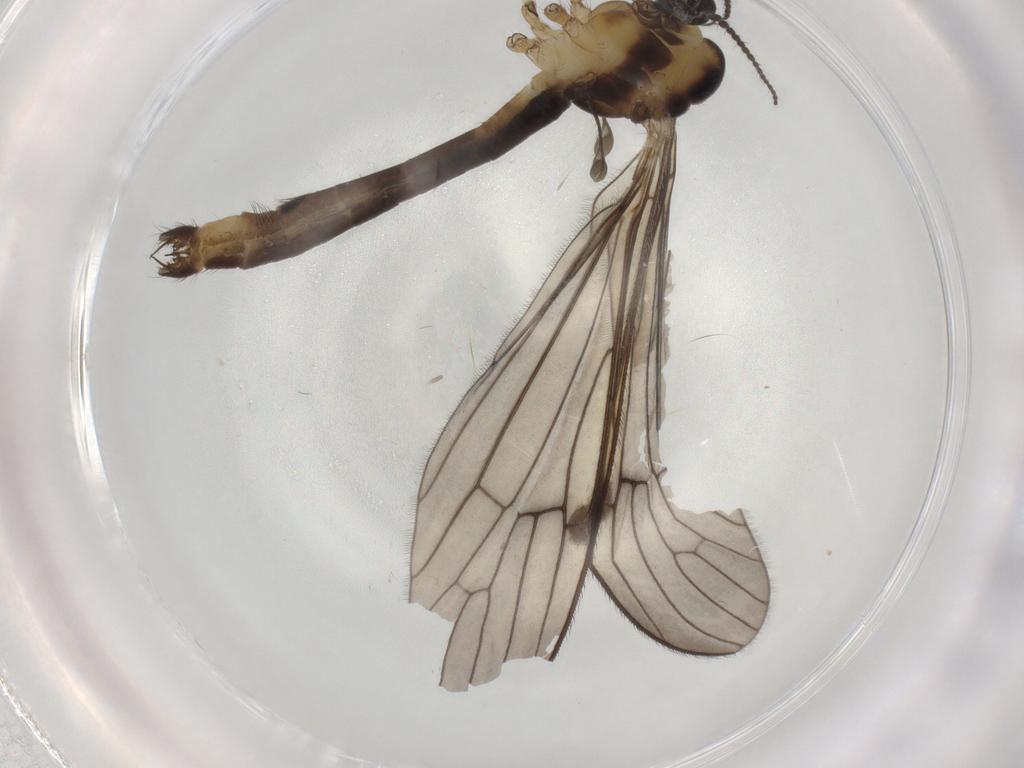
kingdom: Animalia
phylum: Arthropoda
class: Insecta
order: Diptera
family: Limoniidae
